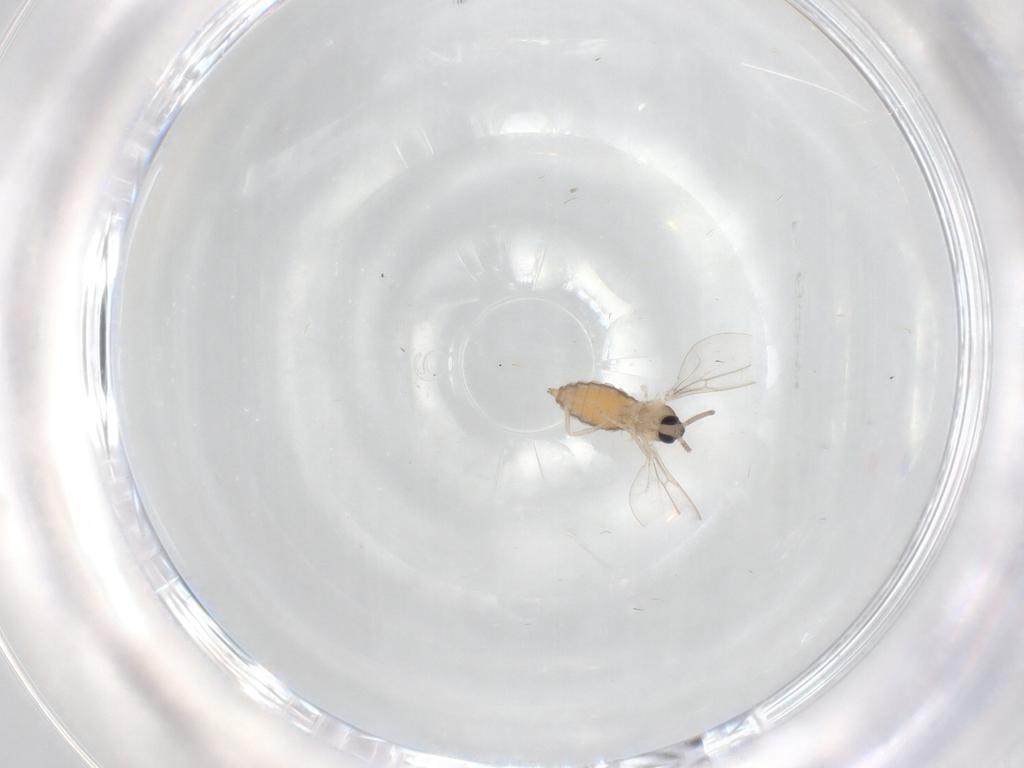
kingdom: Animalia
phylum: Arthropoda
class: Insecta
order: Diptera
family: Cecidomyiidae
